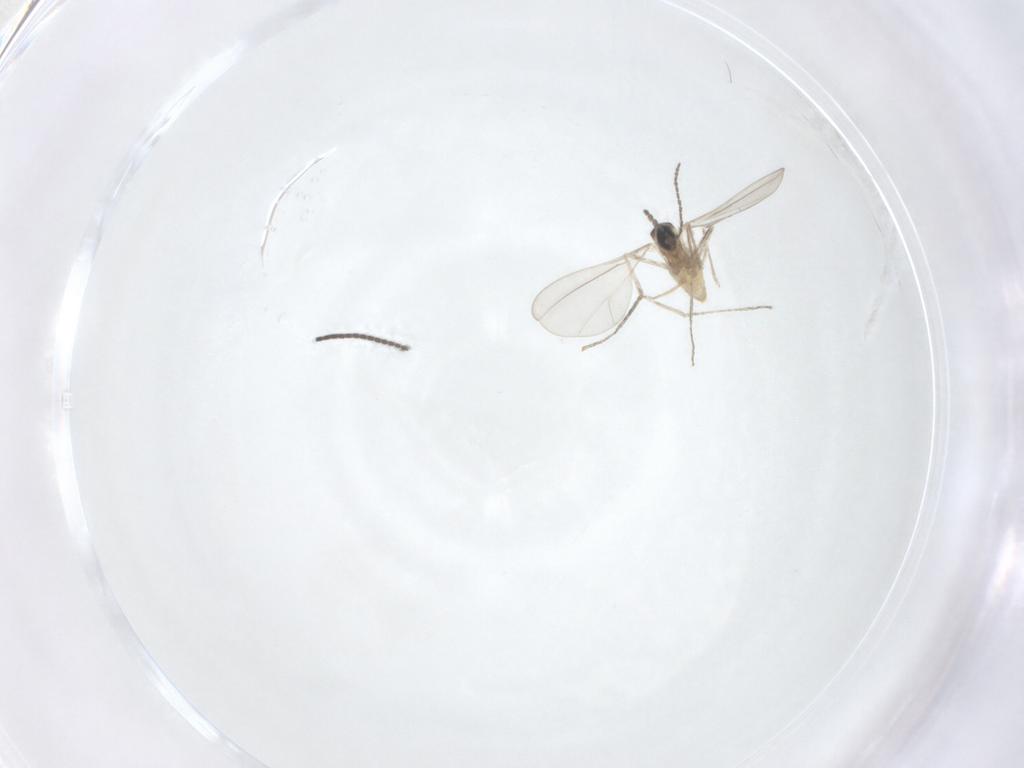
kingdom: Animalia
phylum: Arthropoda
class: Insecta
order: Diptera
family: Cecidomyiidae
